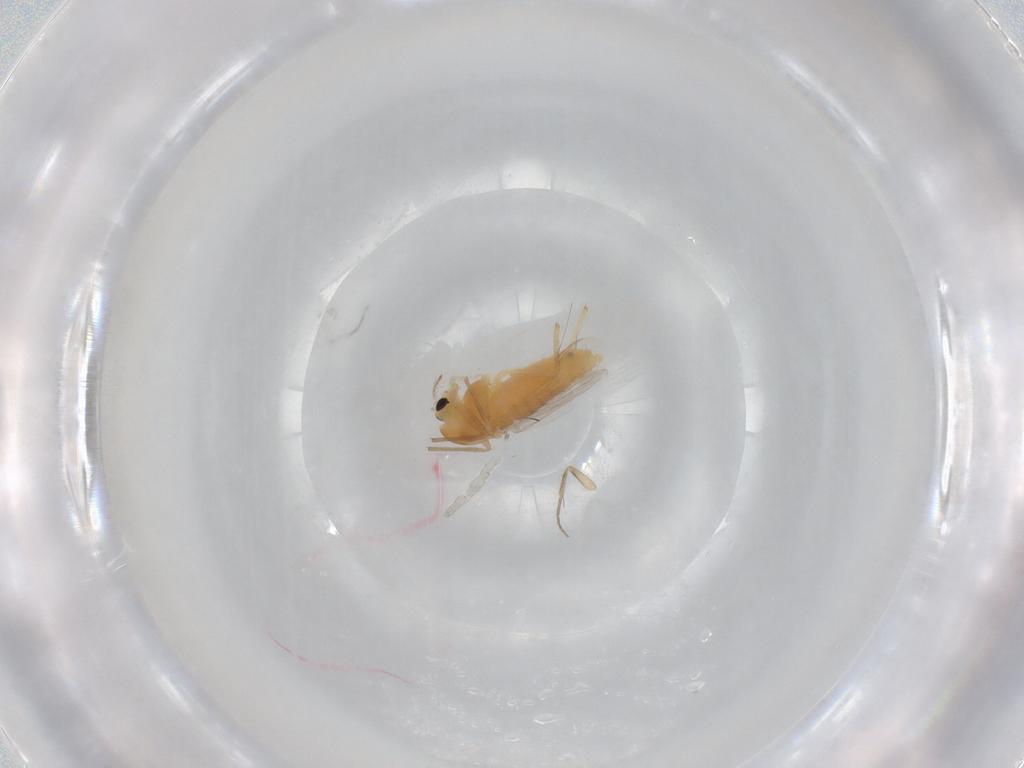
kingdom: Animalia
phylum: Arthropoda
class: Insecta
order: Diptera
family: Chironomidae
